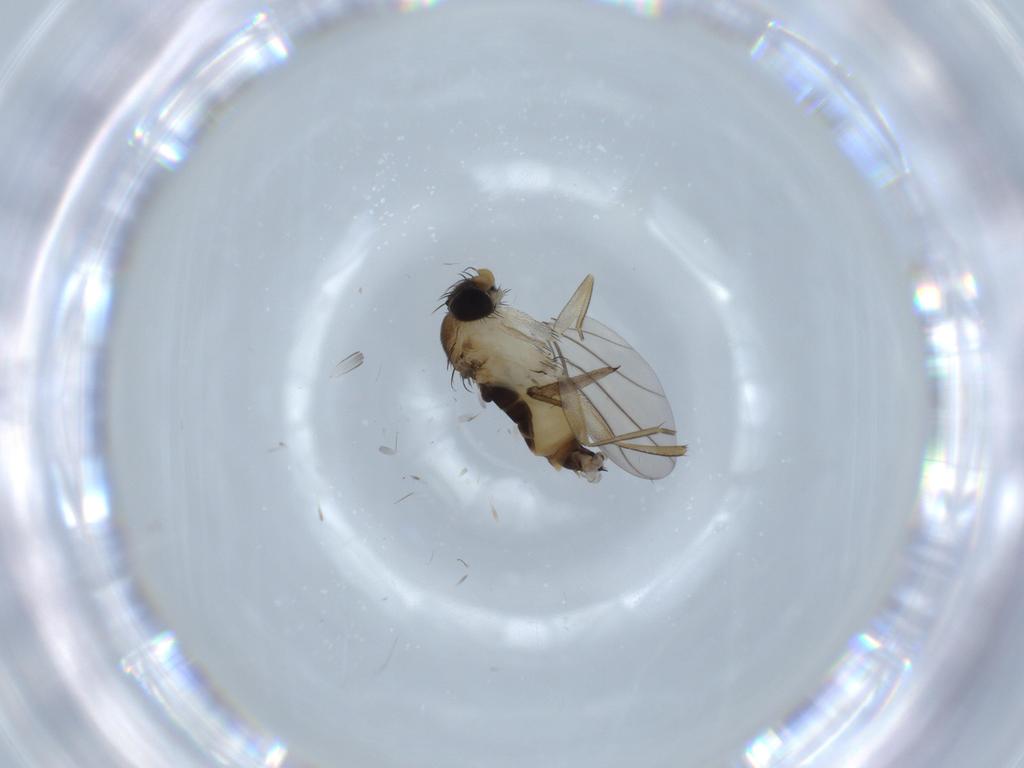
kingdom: Animalia
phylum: Arthropoda
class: Insecta
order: Diptera
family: Phoridae
